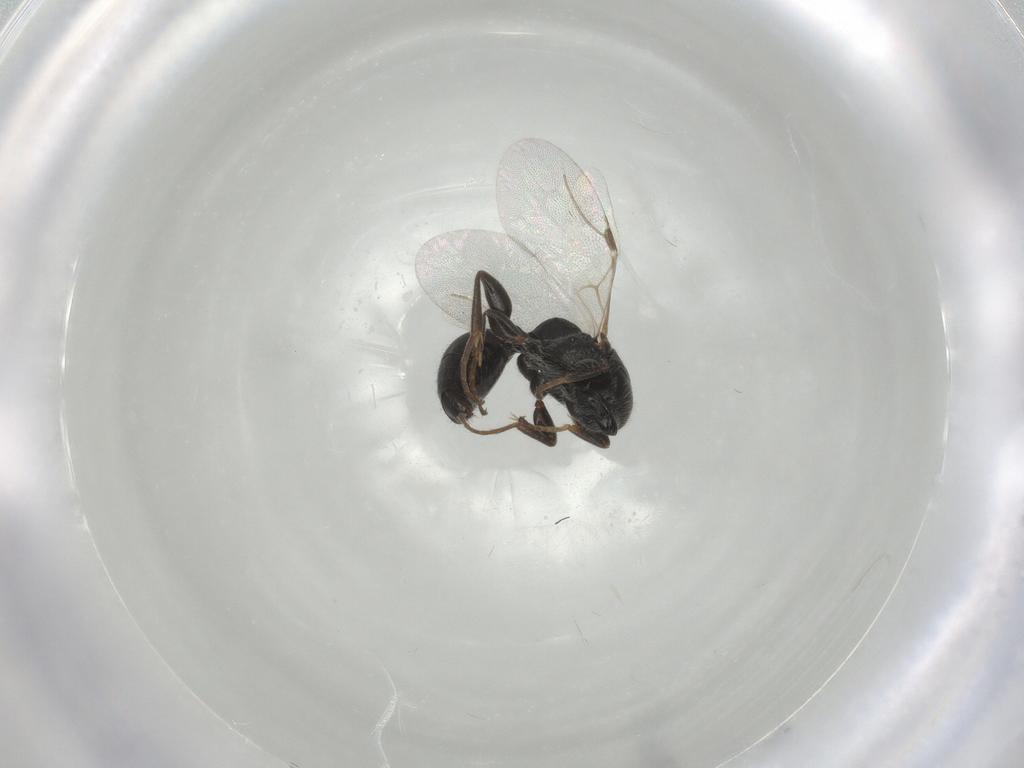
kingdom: Animalia
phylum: Arthropoda
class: Insecta
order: Hymenoptera
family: Bethylidae
